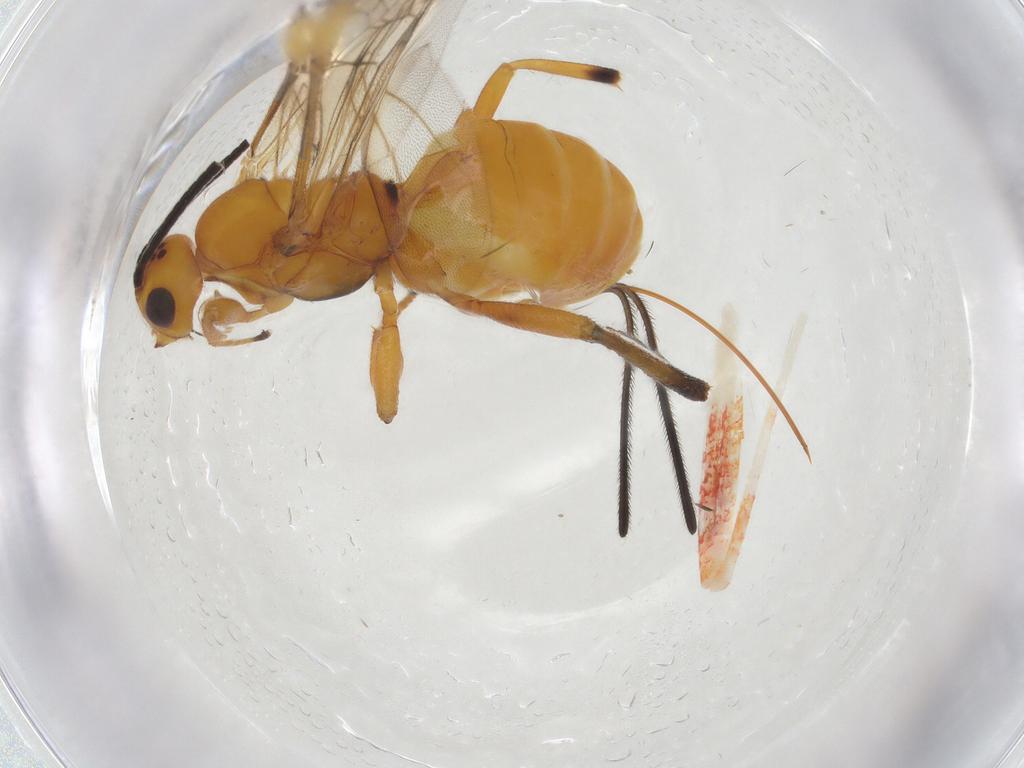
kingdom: Animalia
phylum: Arthropoda
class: Insecta
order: Hymenoptera
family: Braconidae
